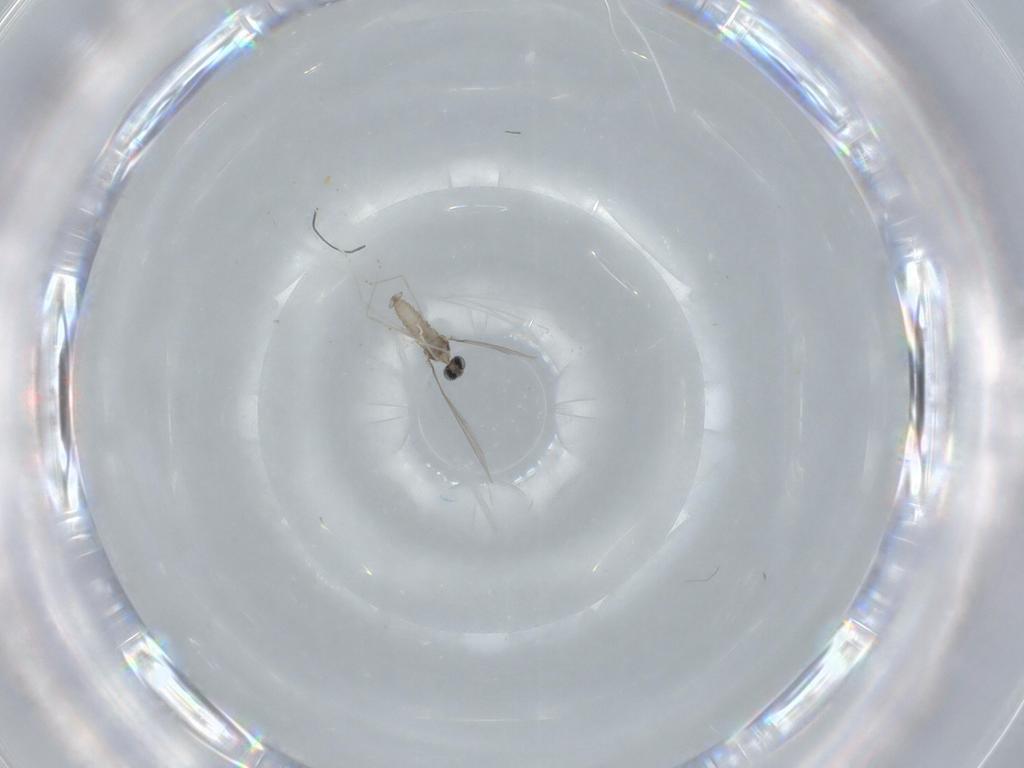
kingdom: Animalia
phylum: Arthropoda
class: Insecta
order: Diptera
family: Cecidomyiidae
